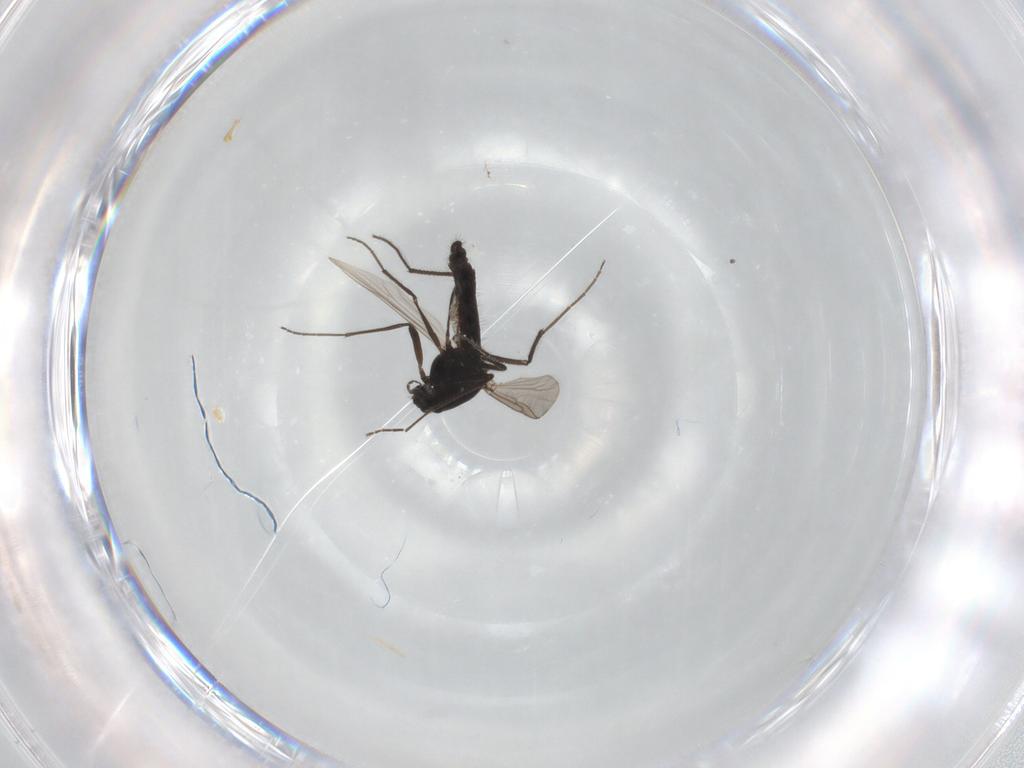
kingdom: Animalia
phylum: Arthropoda
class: Insecta
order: Diptera
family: Chironomidae
